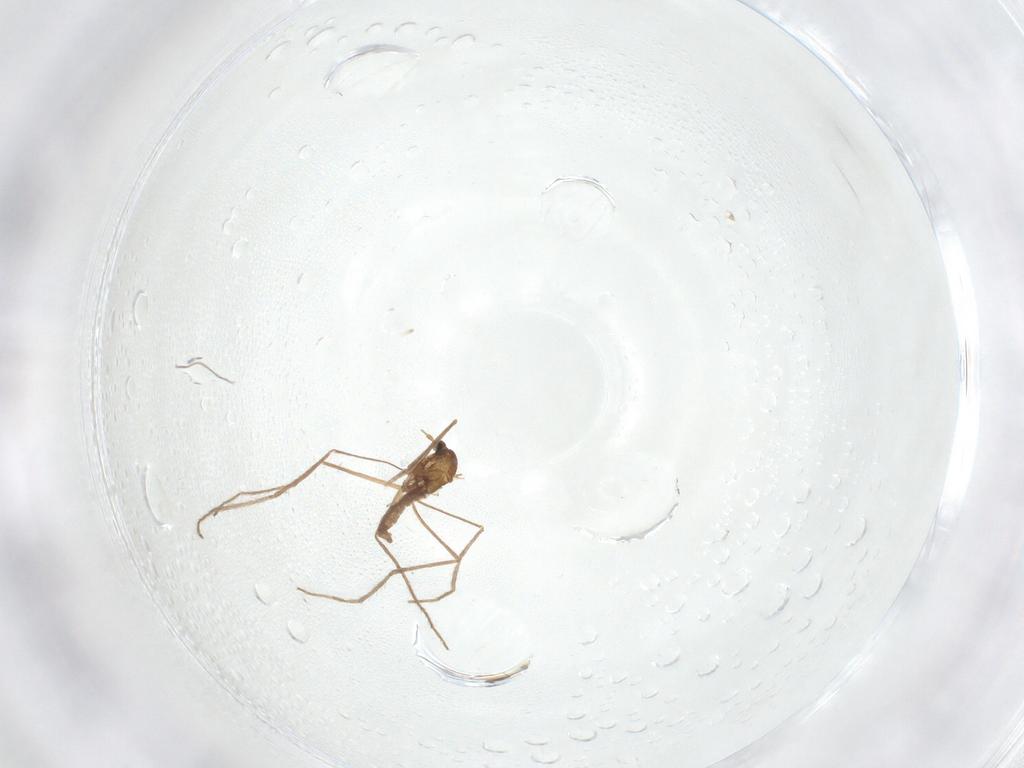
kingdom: Animalia
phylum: Arthropoda
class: Insecta
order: Diptera
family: Cecidomyiidae
